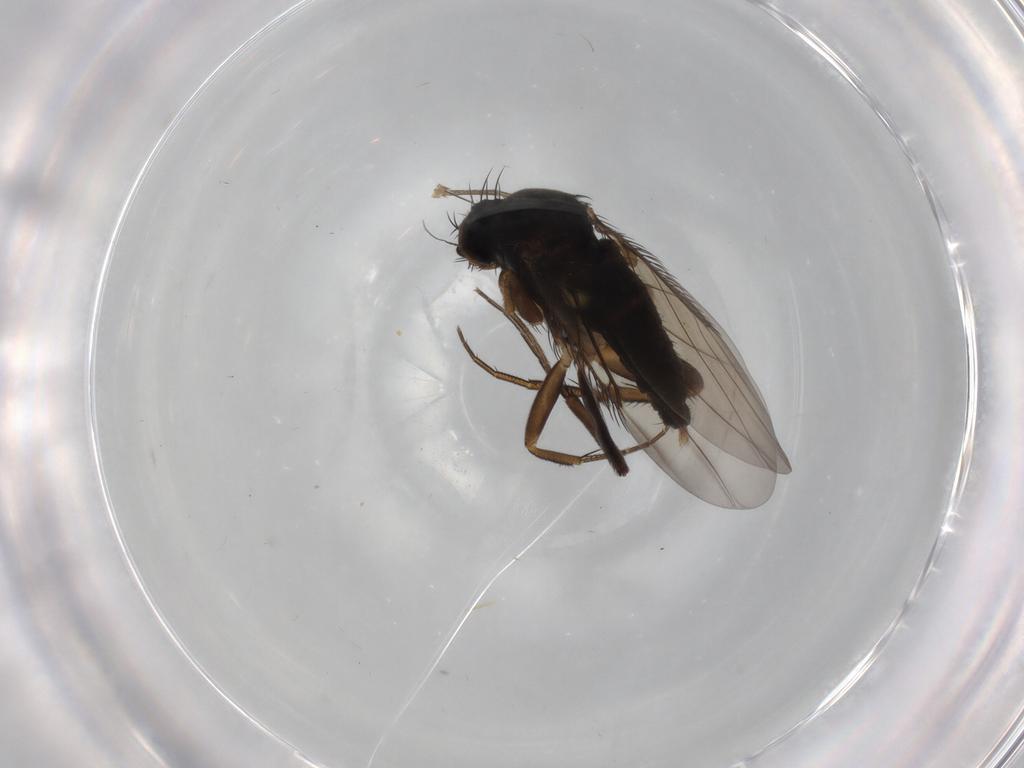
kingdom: Animalia
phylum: Arthropoda
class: Insecta
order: Diptera
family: Phoridae
